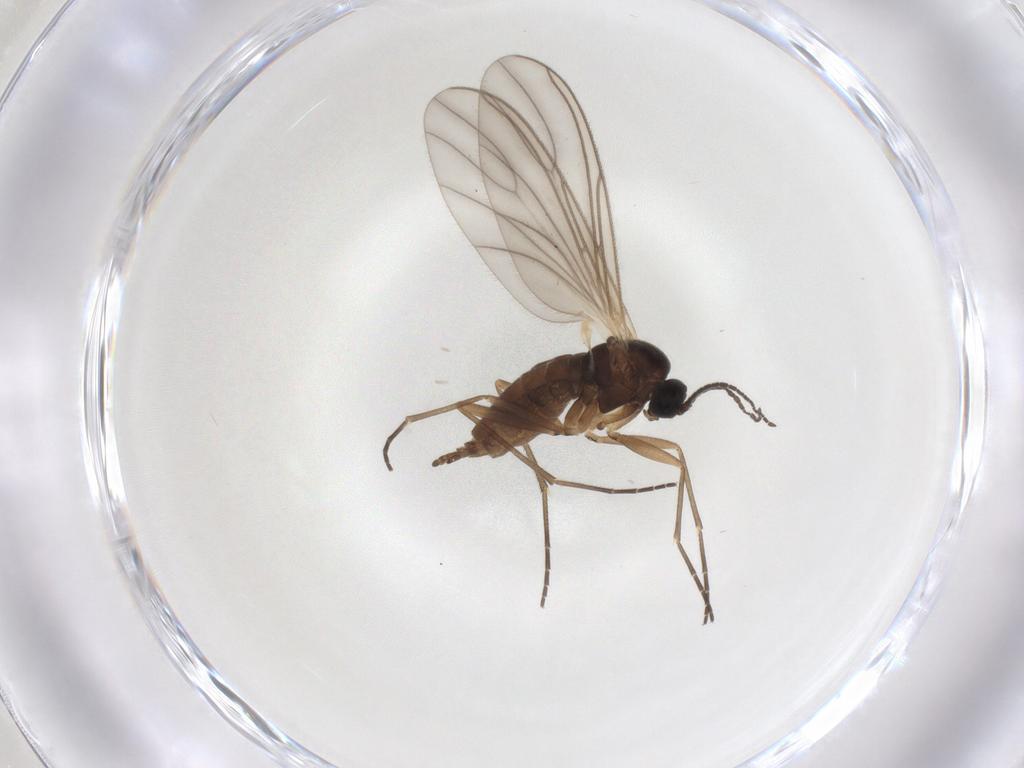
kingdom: Animalia
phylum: Arthropoda
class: Insecta
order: Diptera
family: Sciaridae
